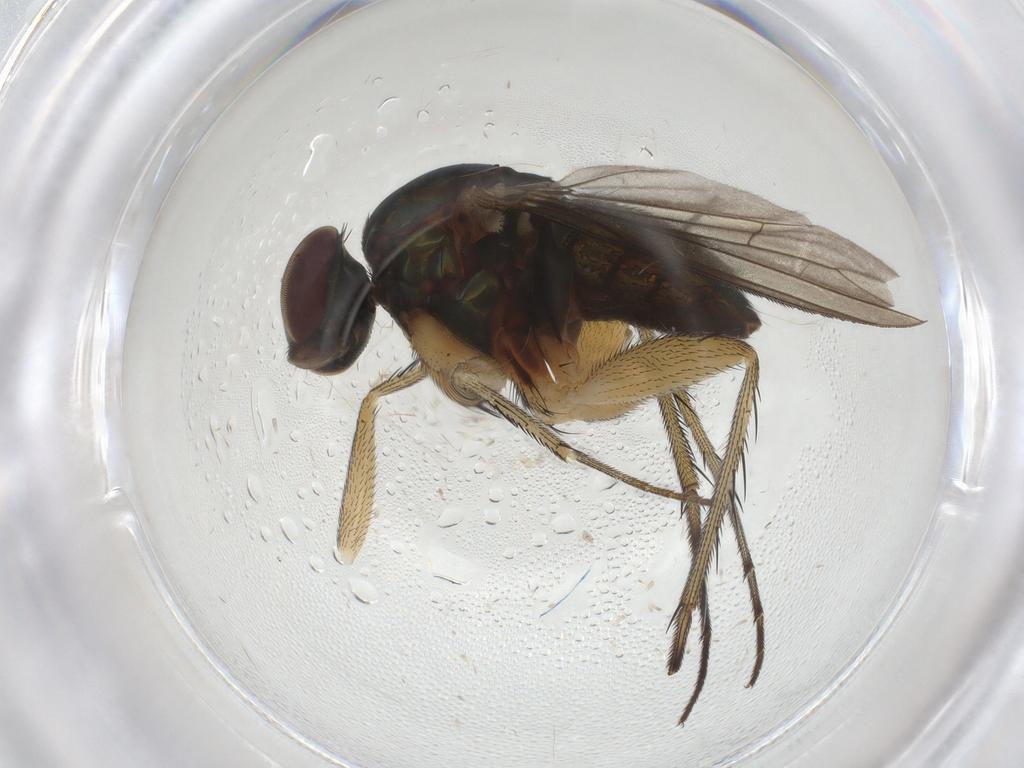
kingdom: Animalia
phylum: Arthropoda
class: Insecta
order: Diptera
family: Dolichopodidae
